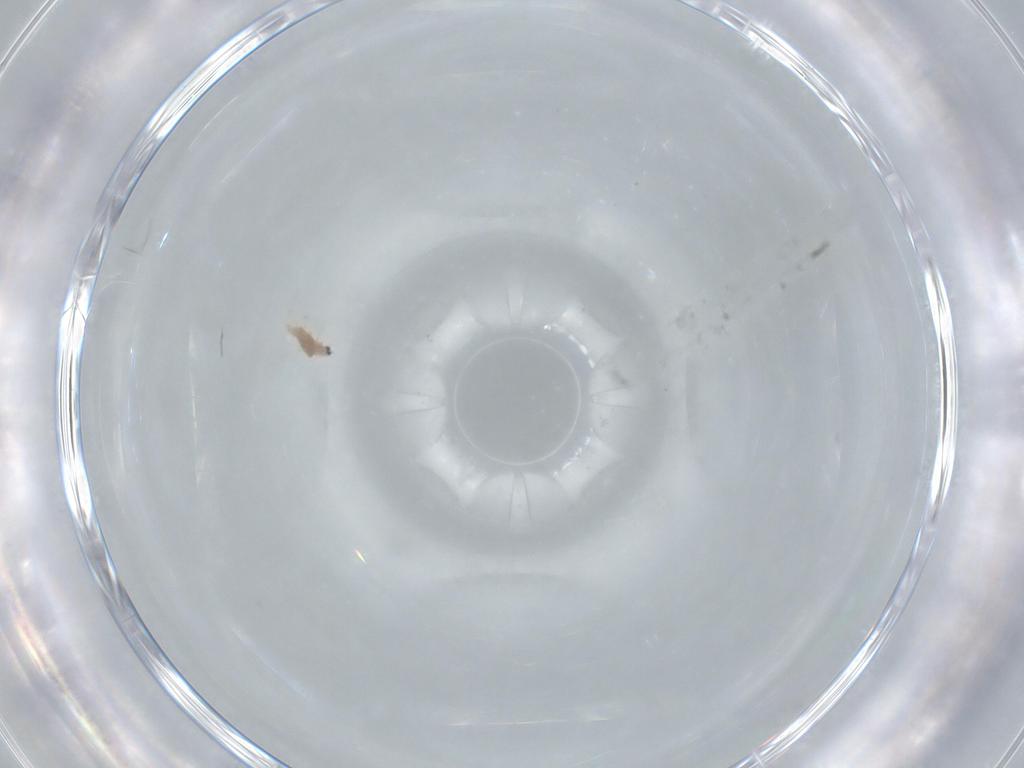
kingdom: Animalia
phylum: Arthropoda
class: Insecta
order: Hemiptera
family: Diaspididae
